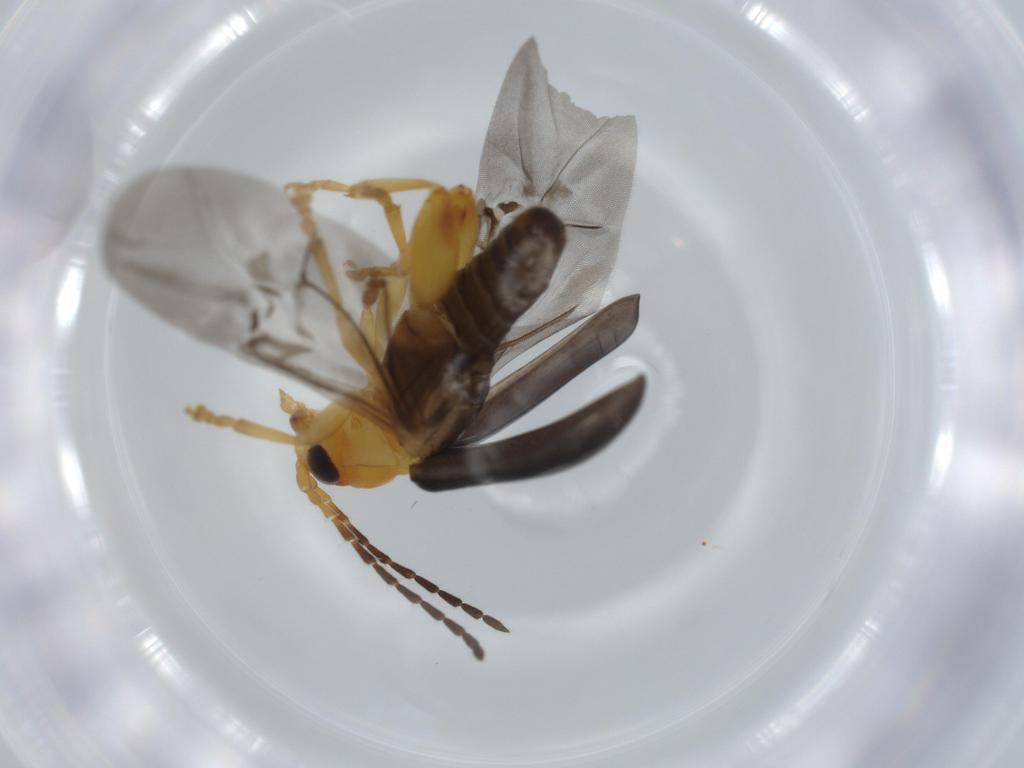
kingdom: Animalia
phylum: Arthropoda
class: Insecta
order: Coleoptera
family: Chrysomelidae
